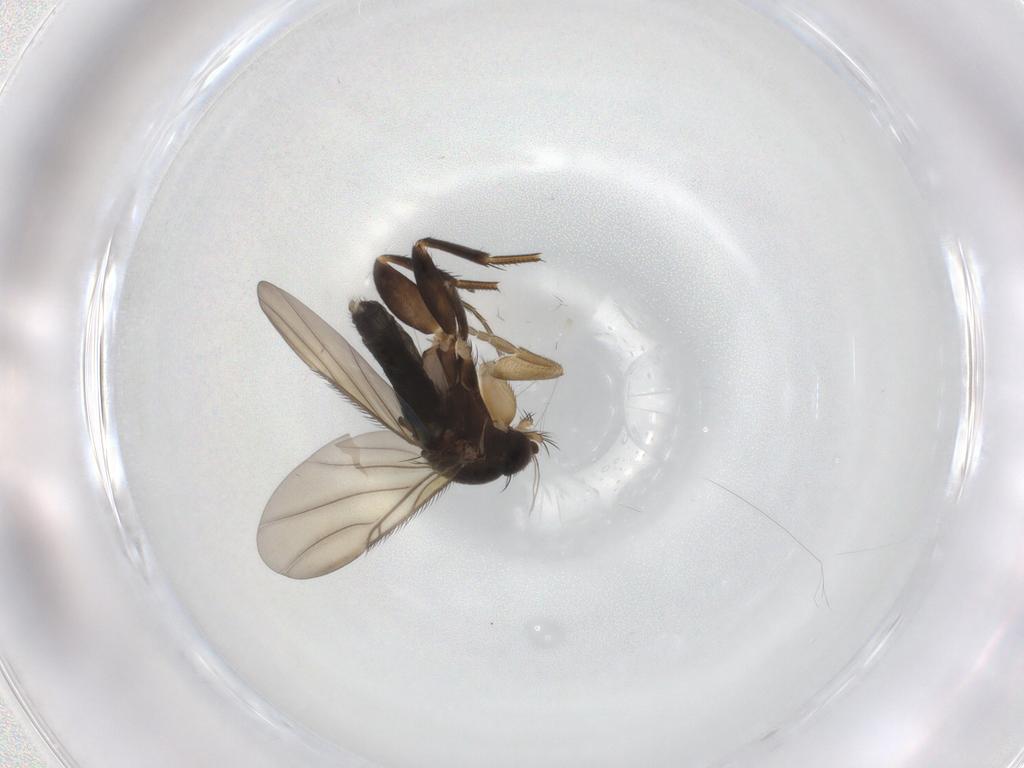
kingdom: Animalia
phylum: Arthropoda
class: Insecta
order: Diptera
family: Phoridae
